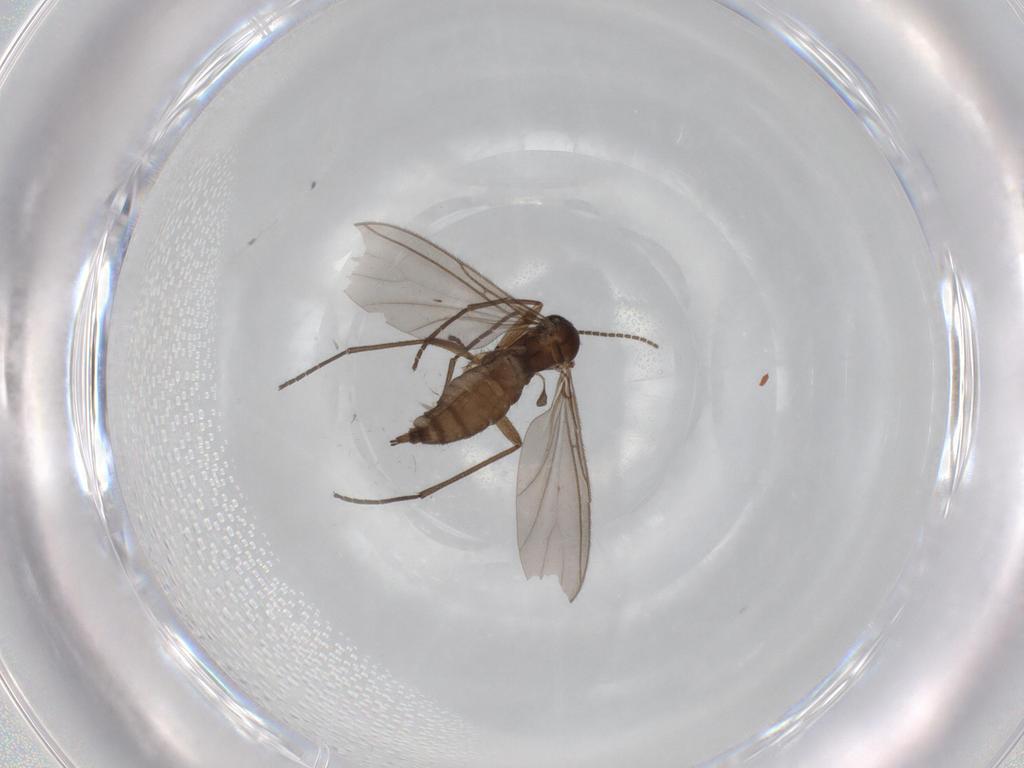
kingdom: Animalia
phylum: Arthropoda
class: Insecta
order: Diptera
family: Sciaridae
